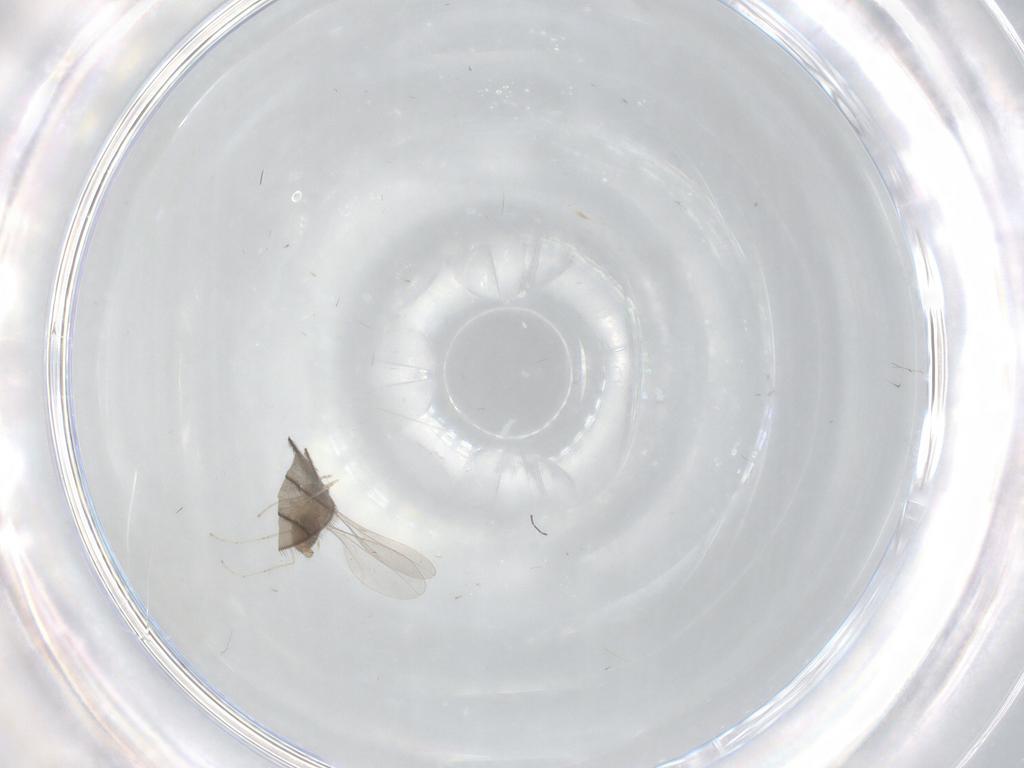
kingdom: Animalia
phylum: Arthropoda
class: Insecta
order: Diptera
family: Cecidomyiidae
